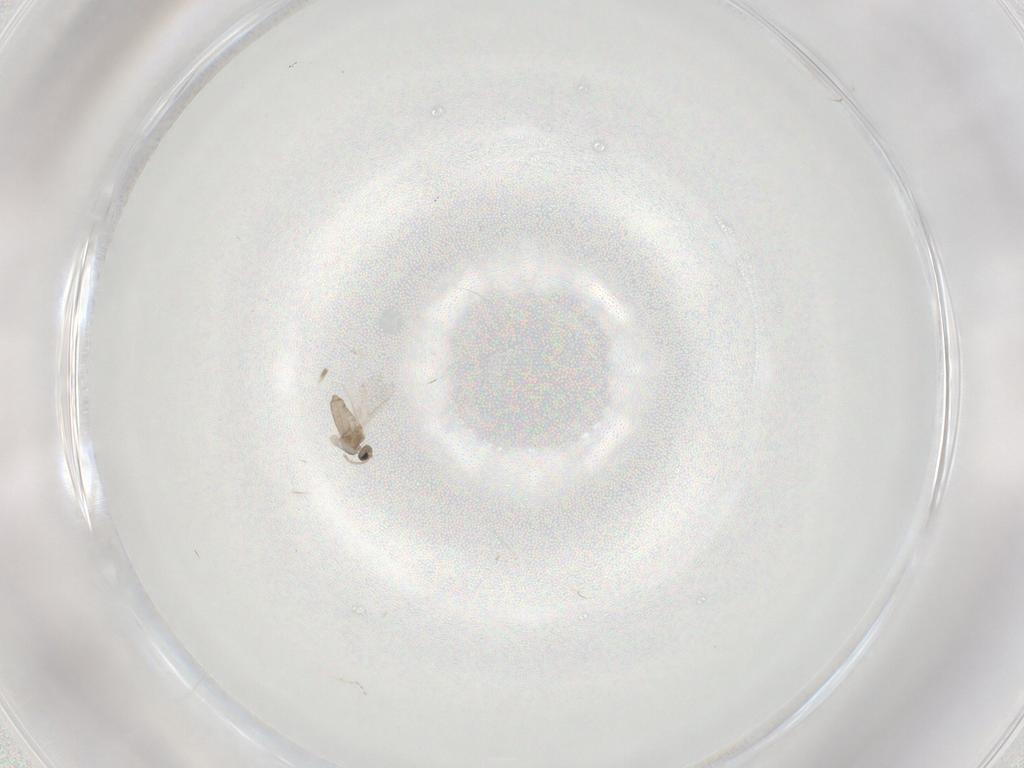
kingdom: Animalia
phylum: Arthropoda
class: Insecta
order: Diptera
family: Cecidomyiidae
